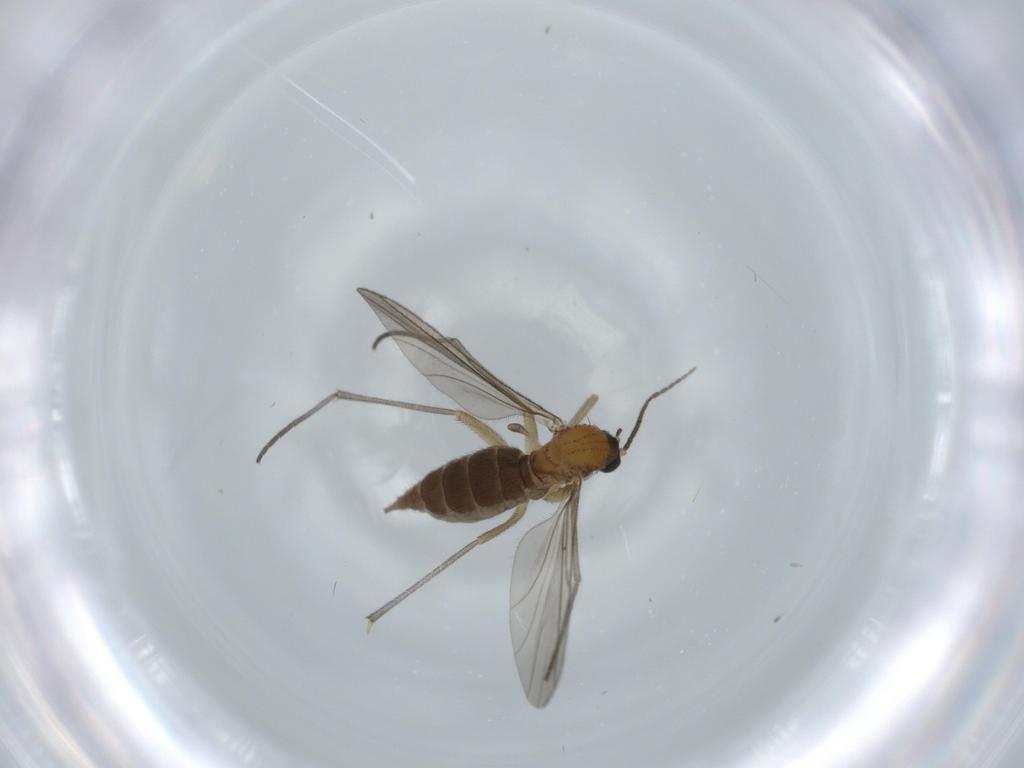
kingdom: Animalia
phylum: Arthropoda
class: Insecta
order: Diptera
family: Sciaridae
